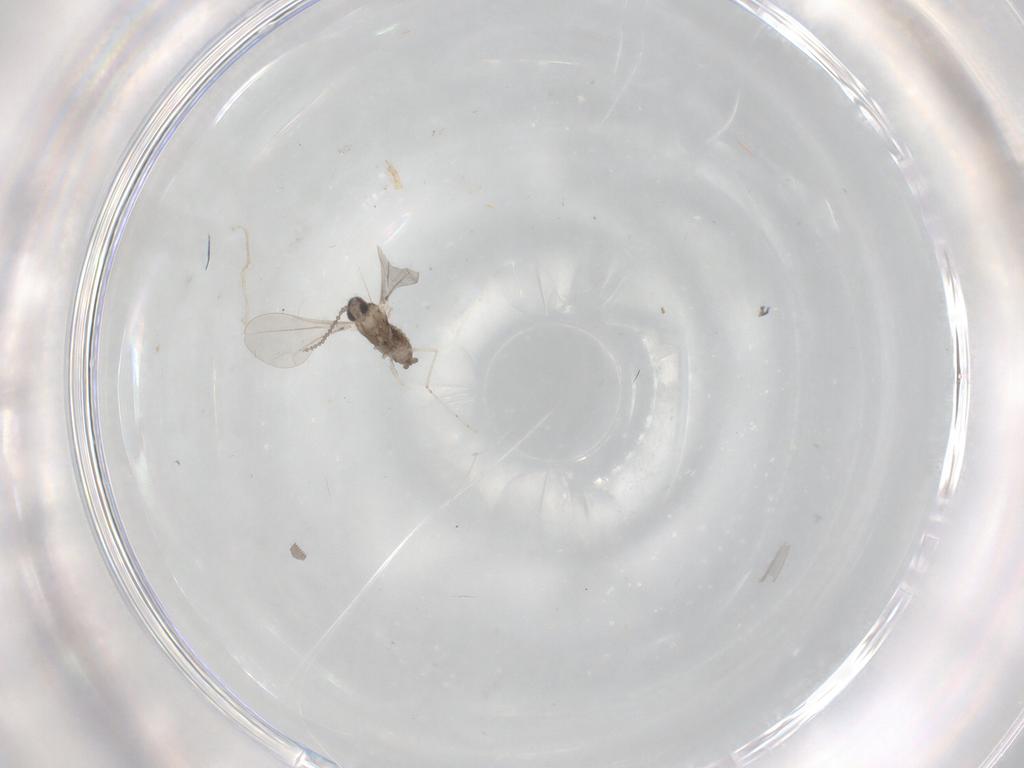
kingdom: Animalia
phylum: Arthropoda
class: Insecta
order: Diptera
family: Cecidomyiidae
